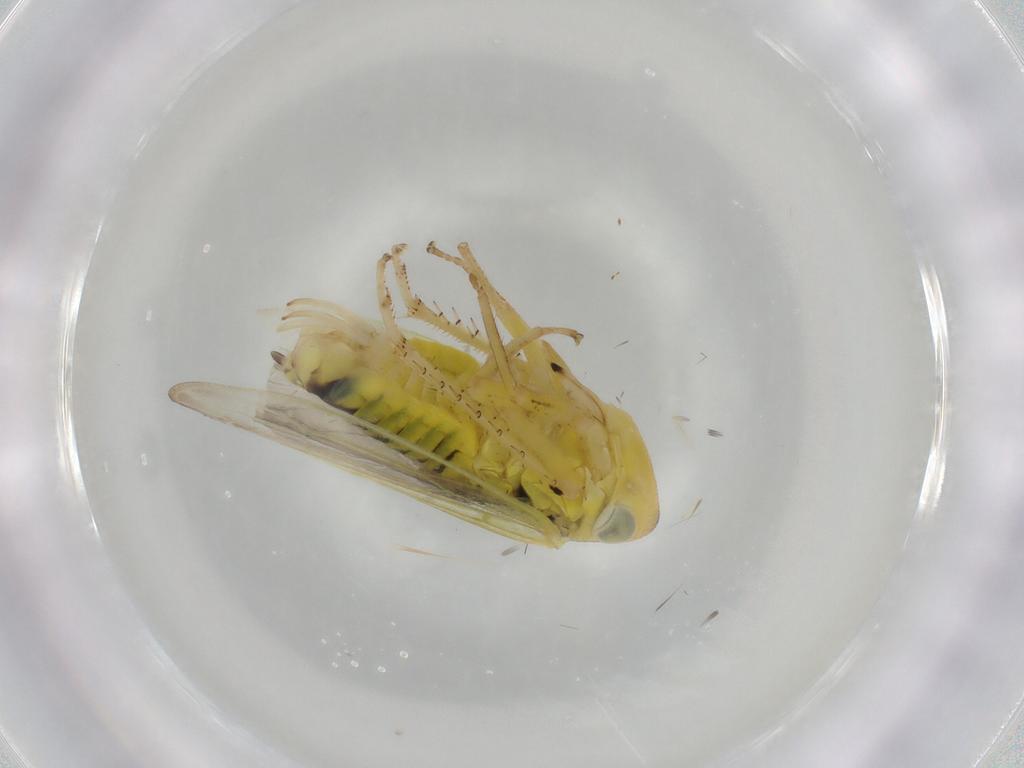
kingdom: Animalia
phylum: Arthropoda
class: Insecta
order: Hemiptera
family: Cicadellidae
